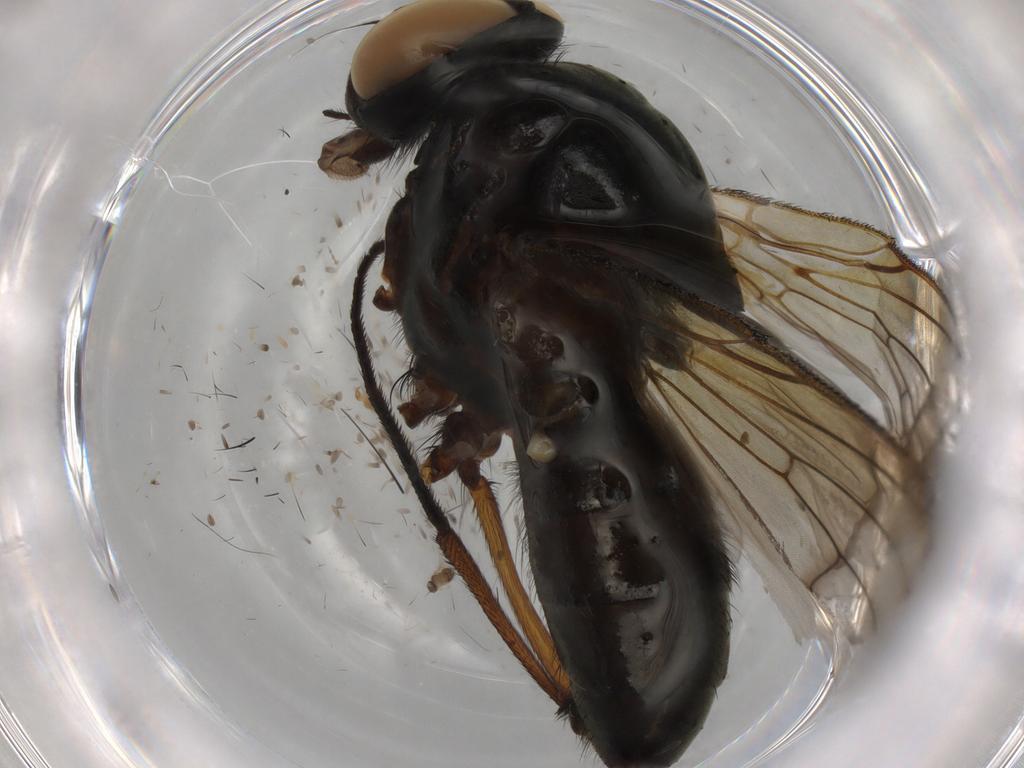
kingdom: Animalia
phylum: Arthropoda
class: Insecta
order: Diptera
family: Muscidae
